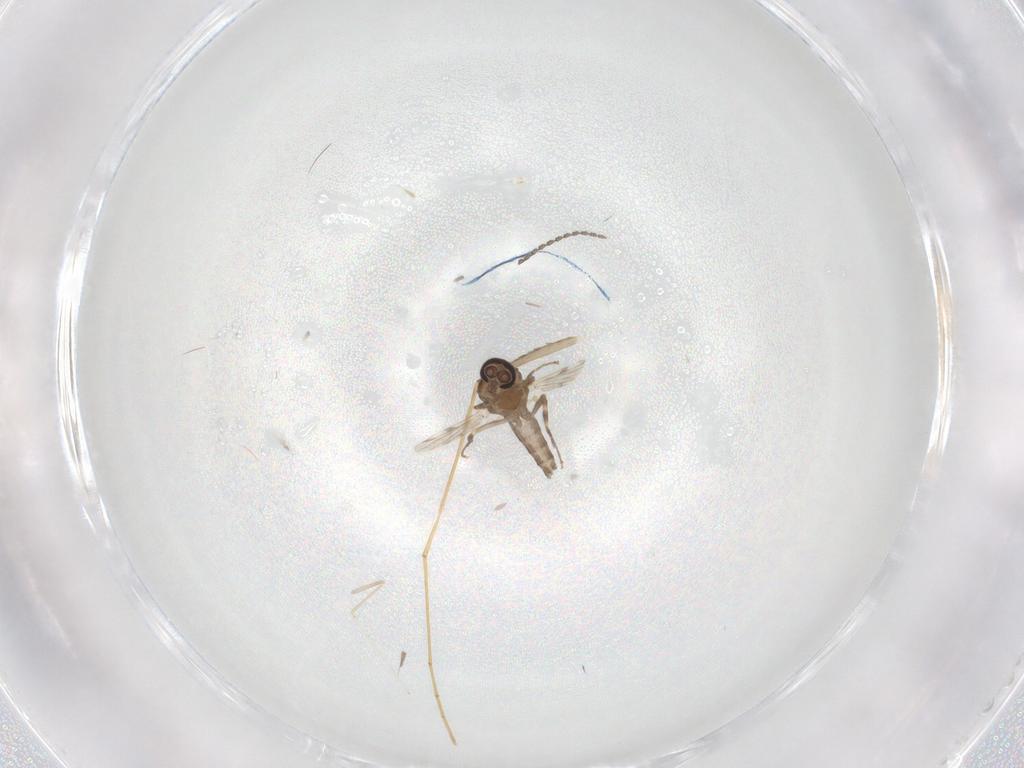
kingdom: Animalia
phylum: Arthropoda
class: Insecta
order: Diptera
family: Ceratopogonidae
